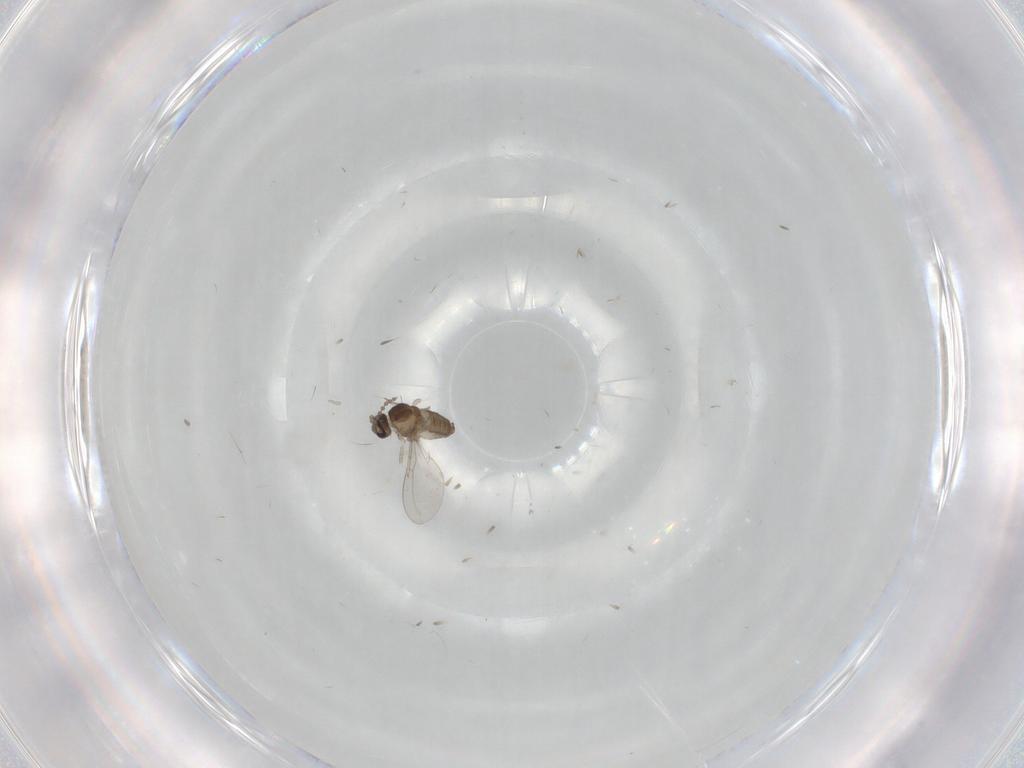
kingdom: Animalia
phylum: Arthropoda
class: Insecta
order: Diptera
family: Cecidomyiidae
